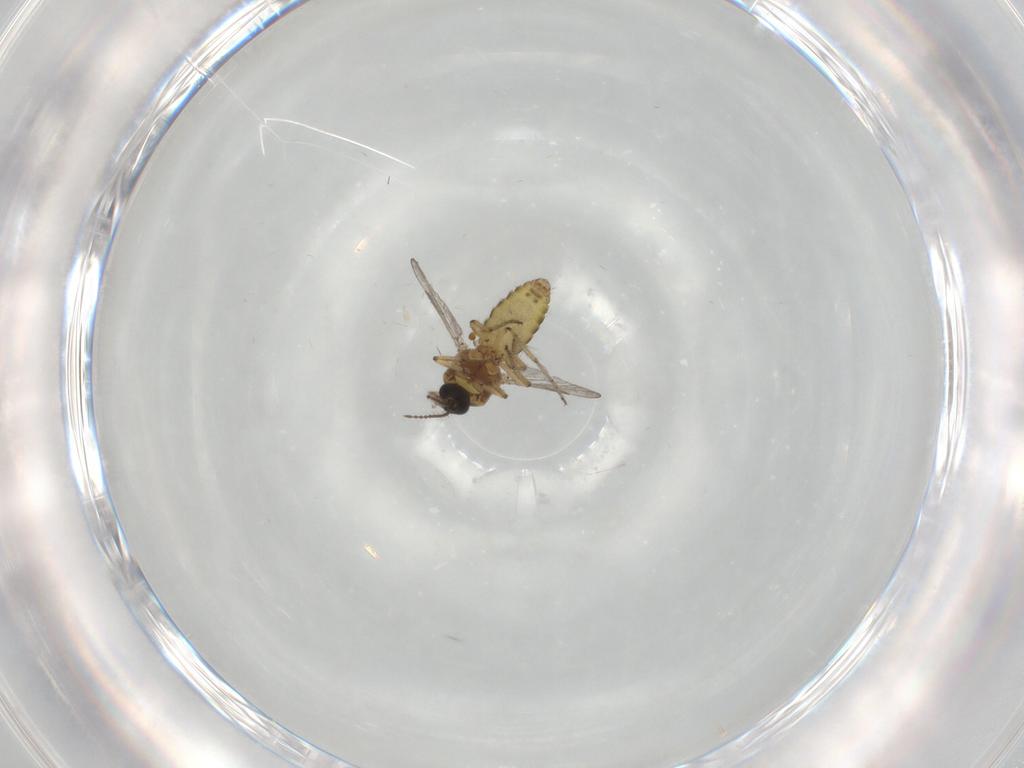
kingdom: Animalia
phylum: Arthropoda
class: Insecta
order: Diptera
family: Ceratopogonidae
